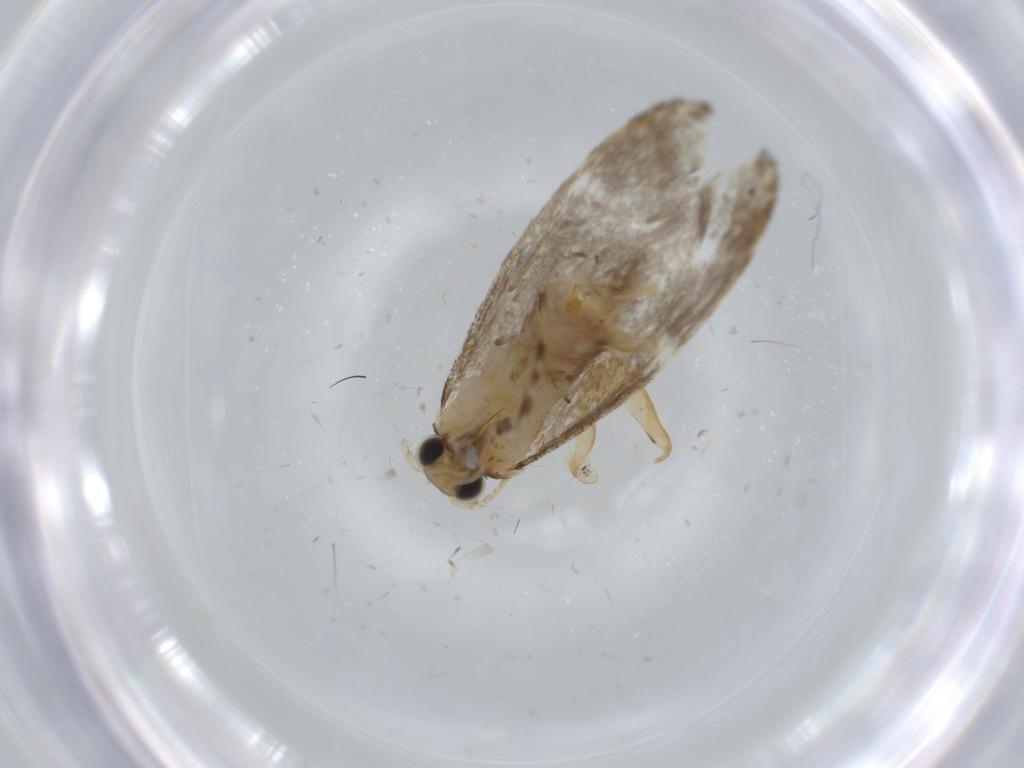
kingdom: Animalia
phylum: Arthropoda
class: Insecta
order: Lepidoptera
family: Tineidae
